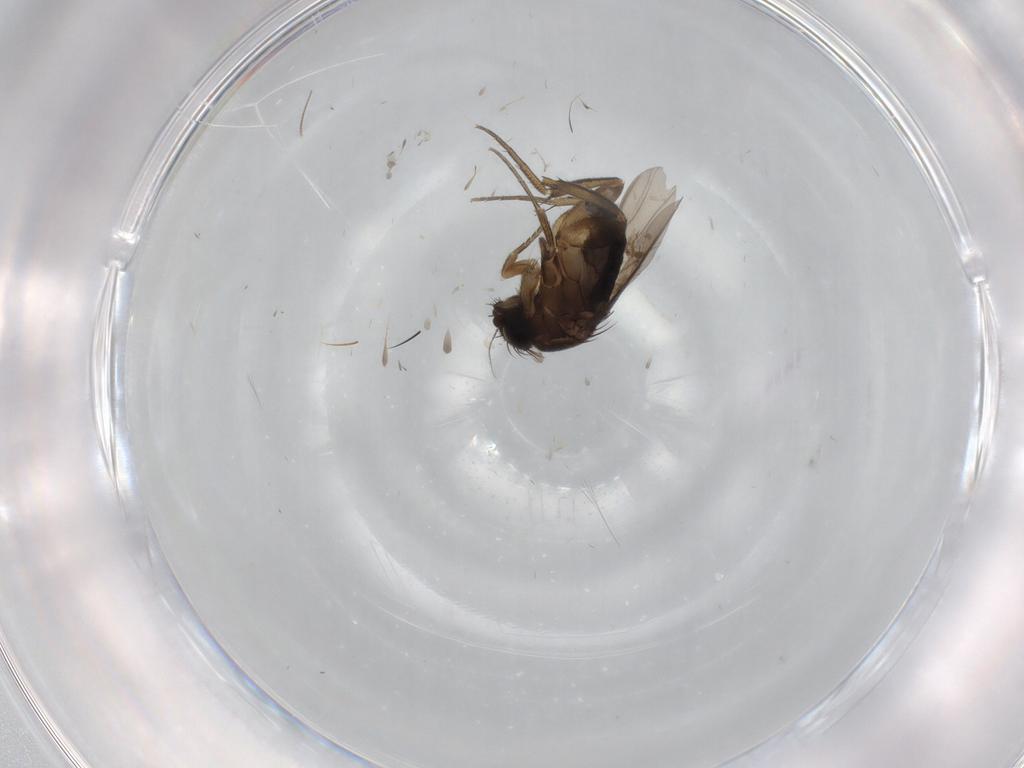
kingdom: Animalia
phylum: Arthropoda
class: Insecta
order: Diptera
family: Phoridae
